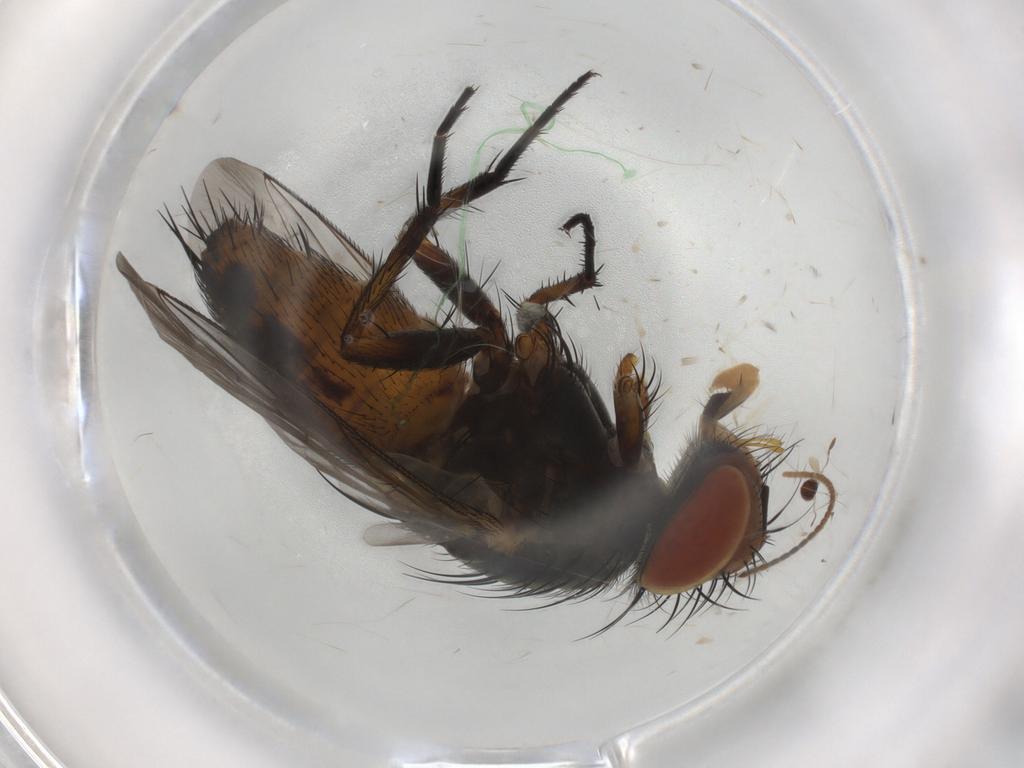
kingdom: Animalia
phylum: Arthropoda
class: Insecta
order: Diptera
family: Sarcophagidae
